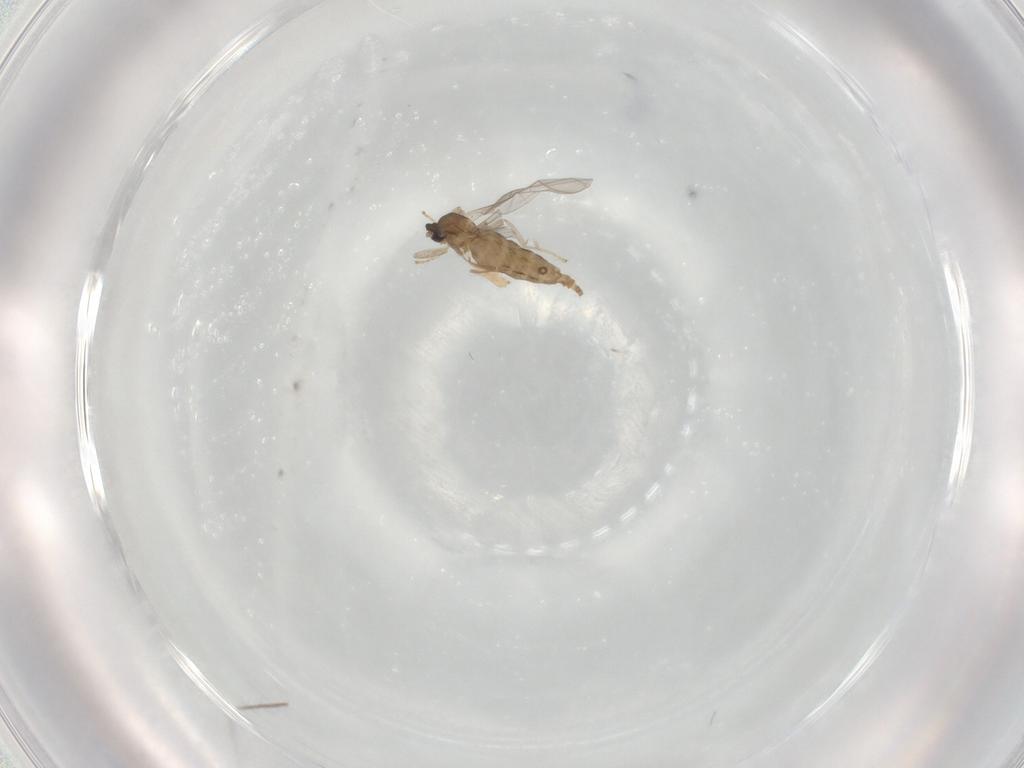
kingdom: Animalia
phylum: Arthropoda
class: Insecta
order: Diptera
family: Cecidomyiidae
